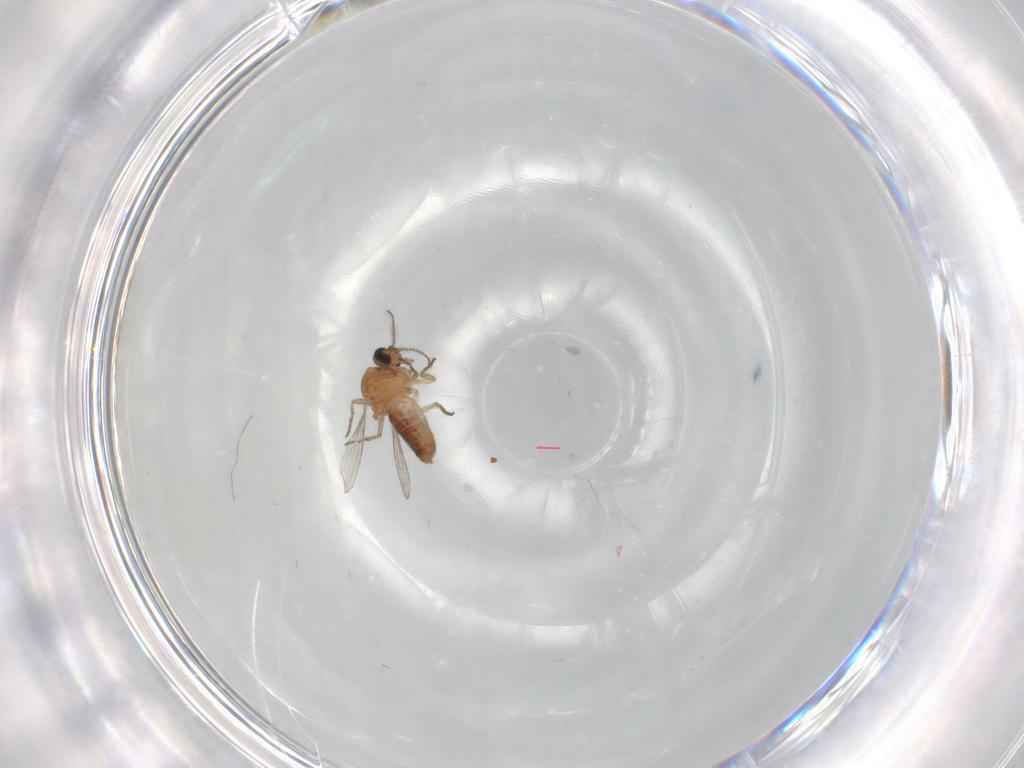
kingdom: Animalia
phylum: Arthropoda
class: Insecta
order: Diptera
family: Ceratopogonidae
